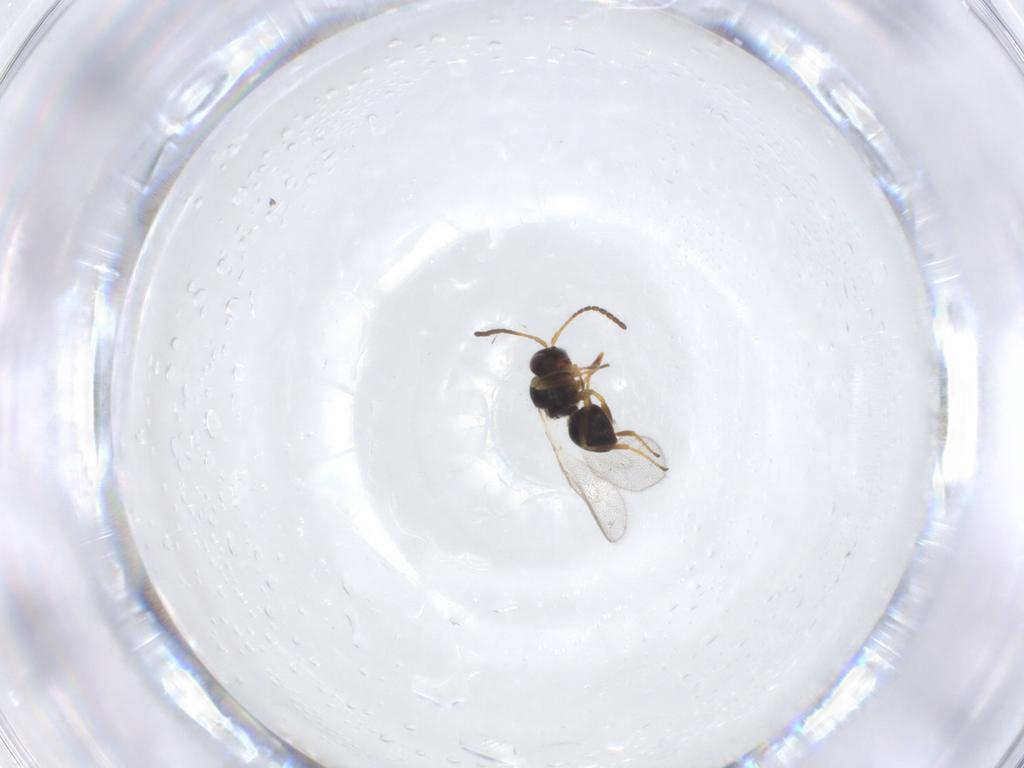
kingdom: Animalia
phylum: Arthropoda
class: Insecta
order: Hymenoptera
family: Figitidae
